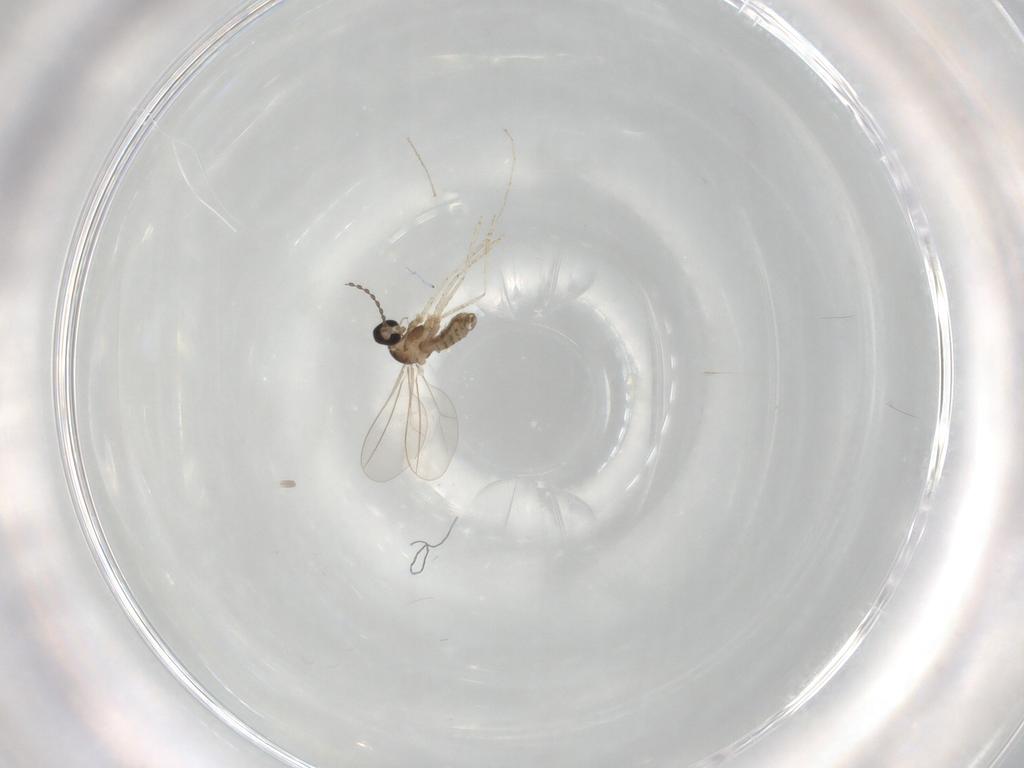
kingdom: Animalia
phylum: Arthropoda
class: Insecta
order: Diptera
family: Cecidomyiidae
